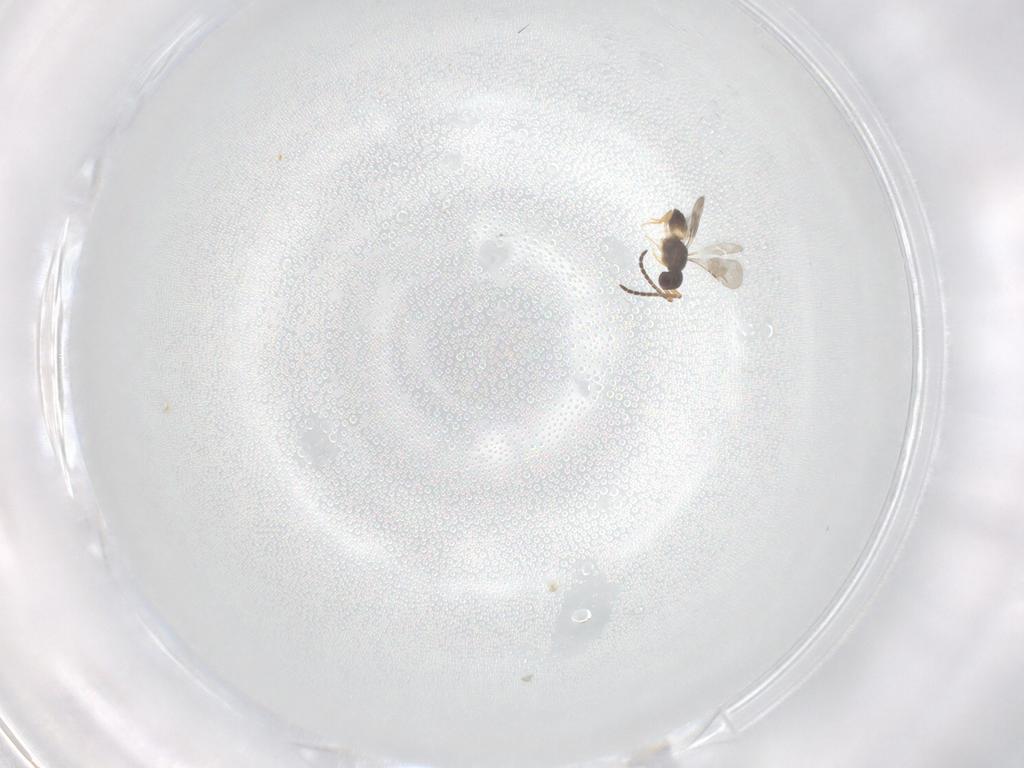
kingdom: Animalia
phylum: Arthropoda
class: Insecta
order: Hymenoptera
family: Ceraphronidae
